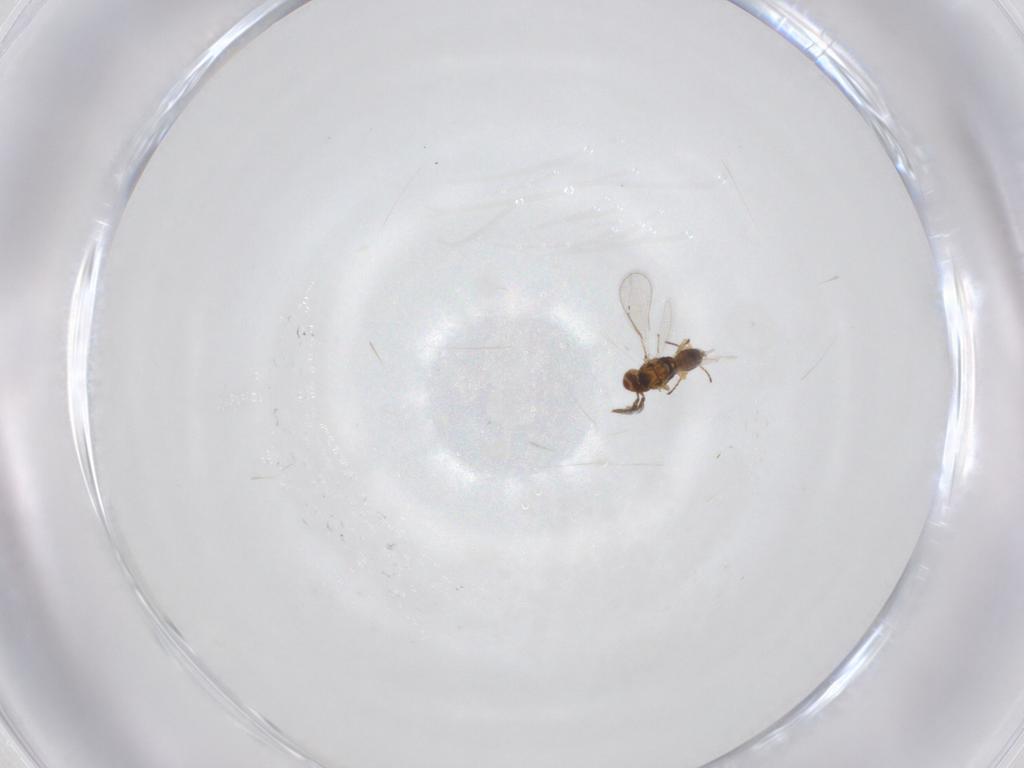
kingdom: Animalia
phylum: Arthropoda
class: Insecta
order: Hymenoptera
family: Eulophidae
